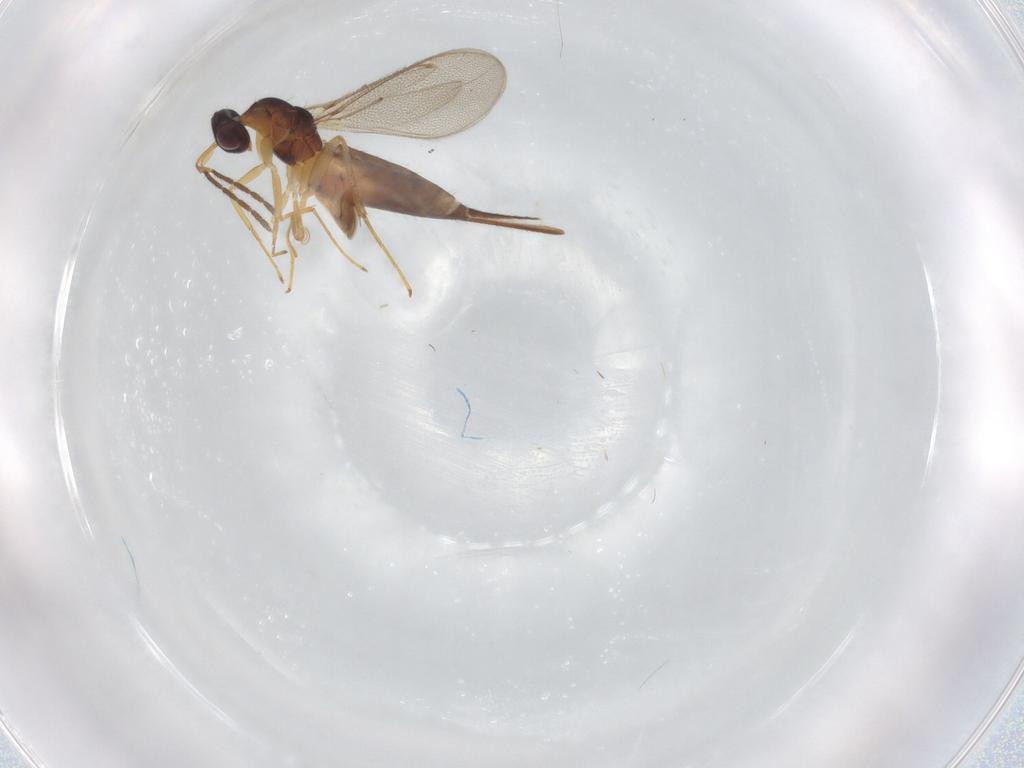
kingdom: Animalia
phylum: Arthropoda
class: Insecta
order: Hymenoptera
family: Eulophidae
